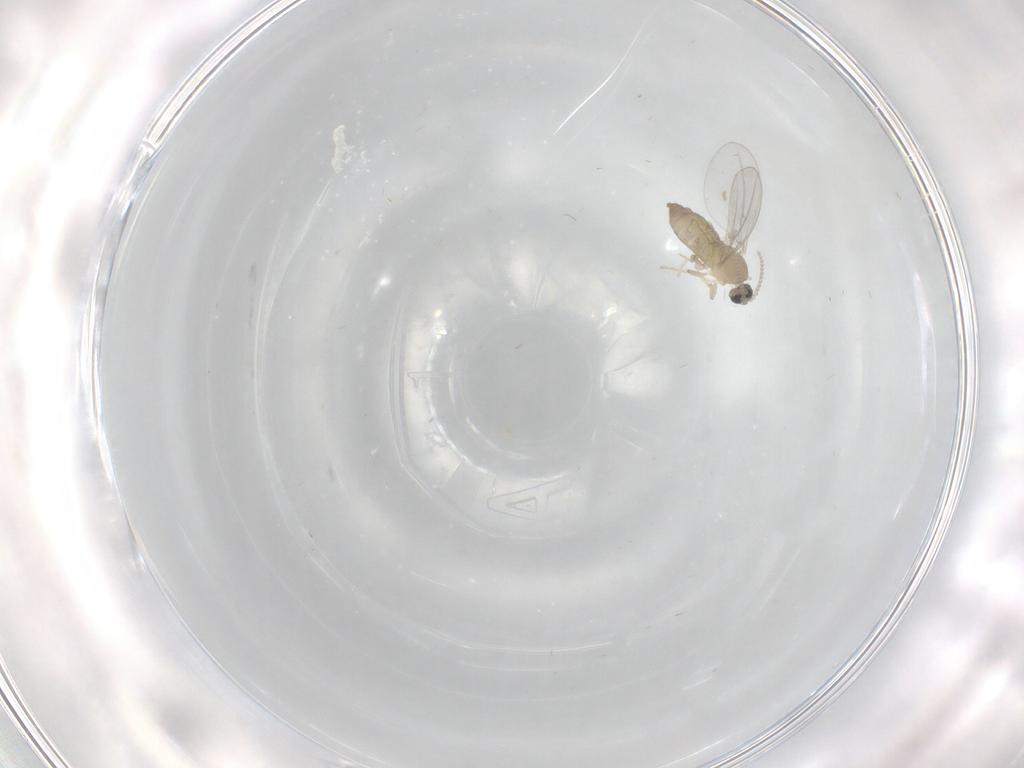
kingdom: Animalia
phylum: Arthropoda
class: Insecta
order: Diptera
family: Cecidomyiidae
